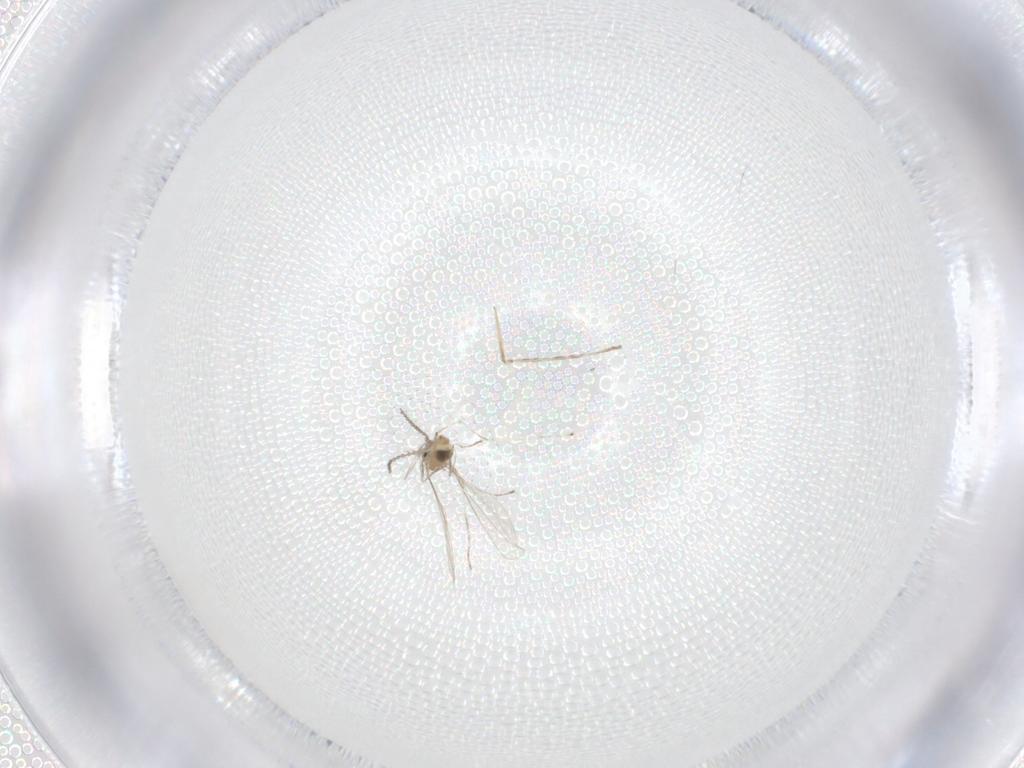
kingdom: Animalia
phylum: Arthropoda
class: Insecta
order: Diptera
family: Cecidomyiidae
